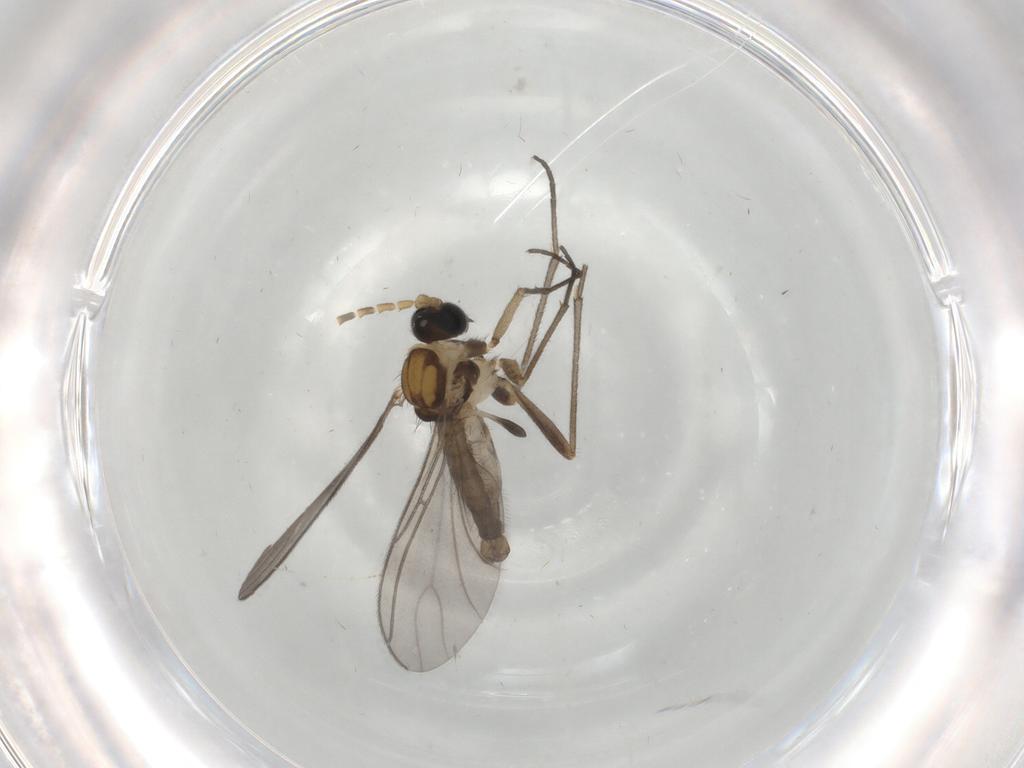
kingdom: Animalia
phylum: Arthropoda
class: Insecta
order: Diptera
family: Sciaridae
